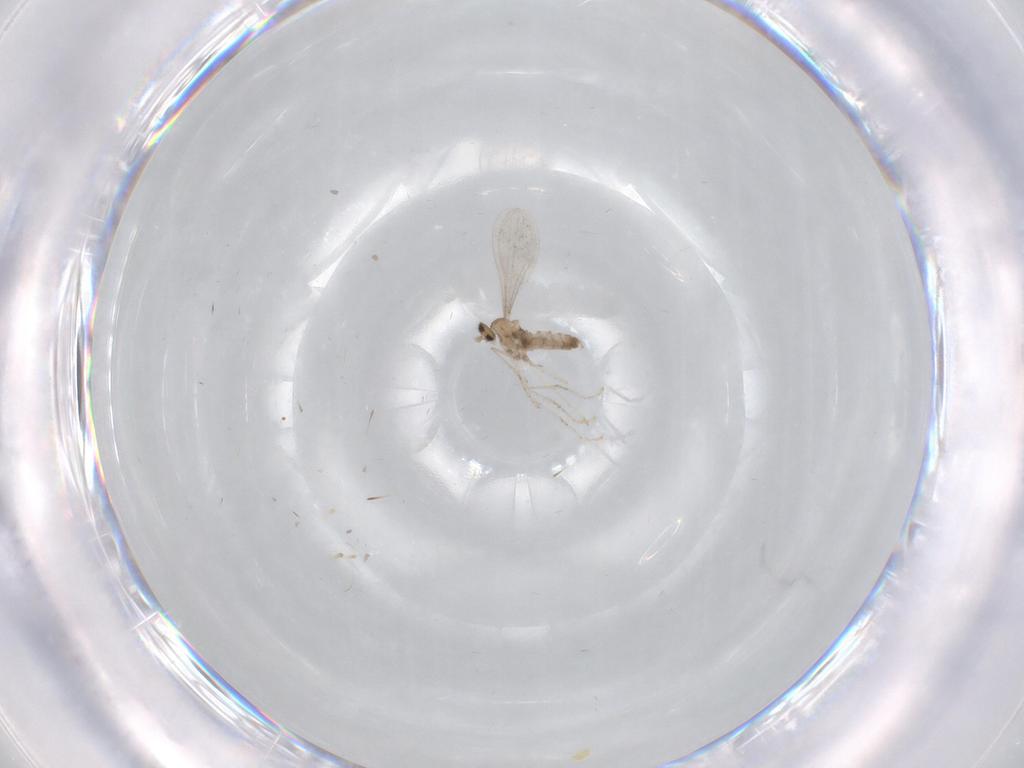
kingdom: Animalia
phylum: Arthropoda
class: Insecta
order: Diptera
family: Cecidomyiidae
